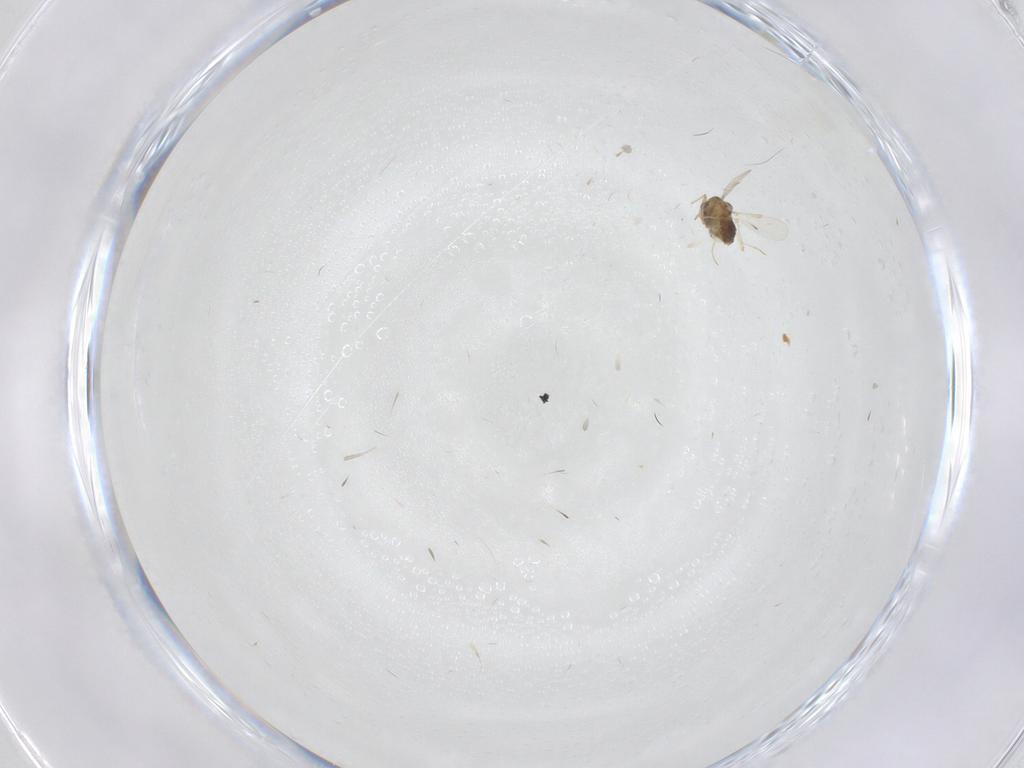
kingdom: Animalia
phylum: Arthropoda
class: Insecta
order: Diptera
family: Chironomidae
